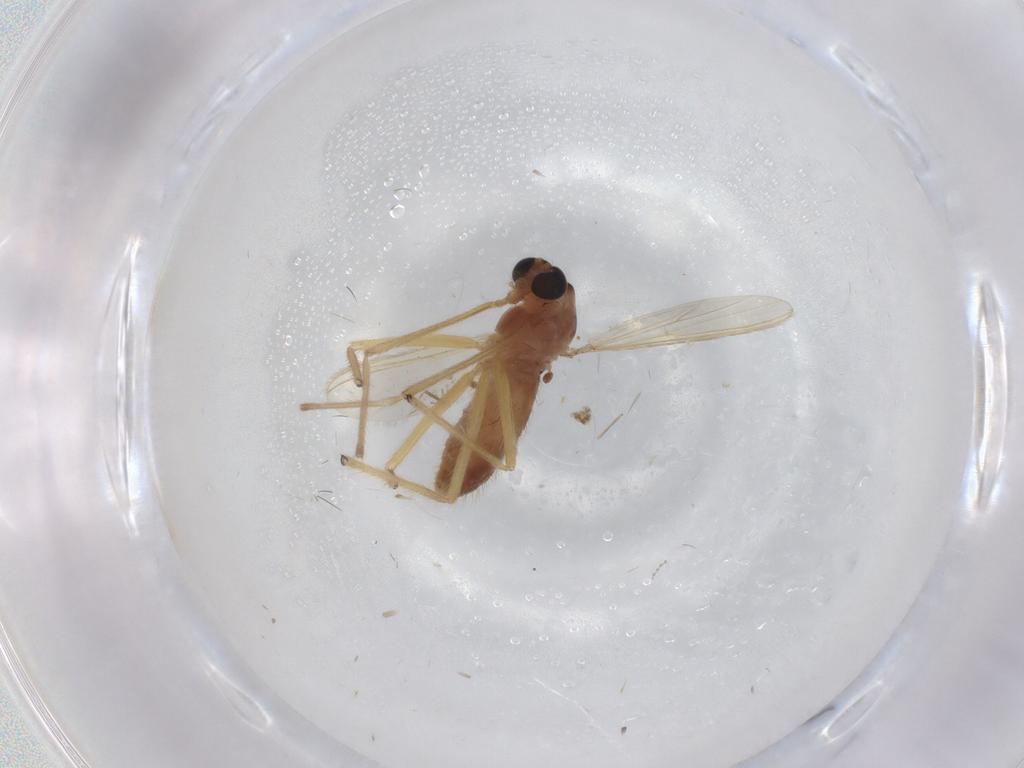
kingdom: Animalia
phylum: Arthropoda
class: Insecta
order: Diptera
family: Chironomidae
